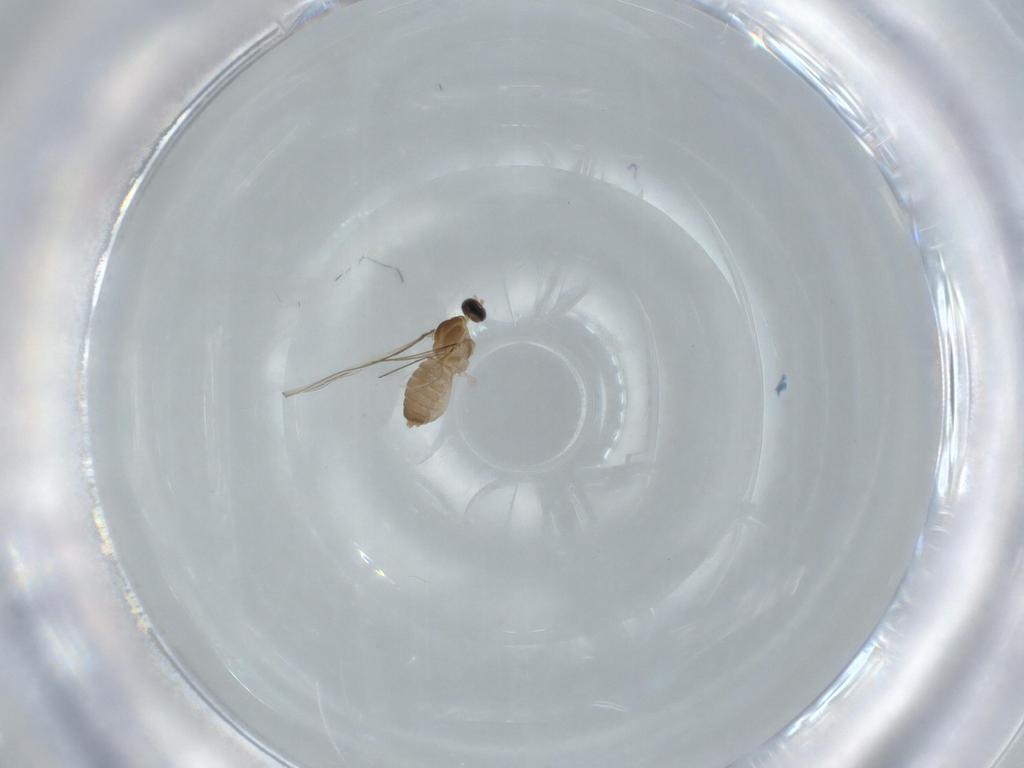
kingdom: Animalia
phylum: Arthropoda
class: Insecta
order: Diptera
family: Cecidomyiidae
